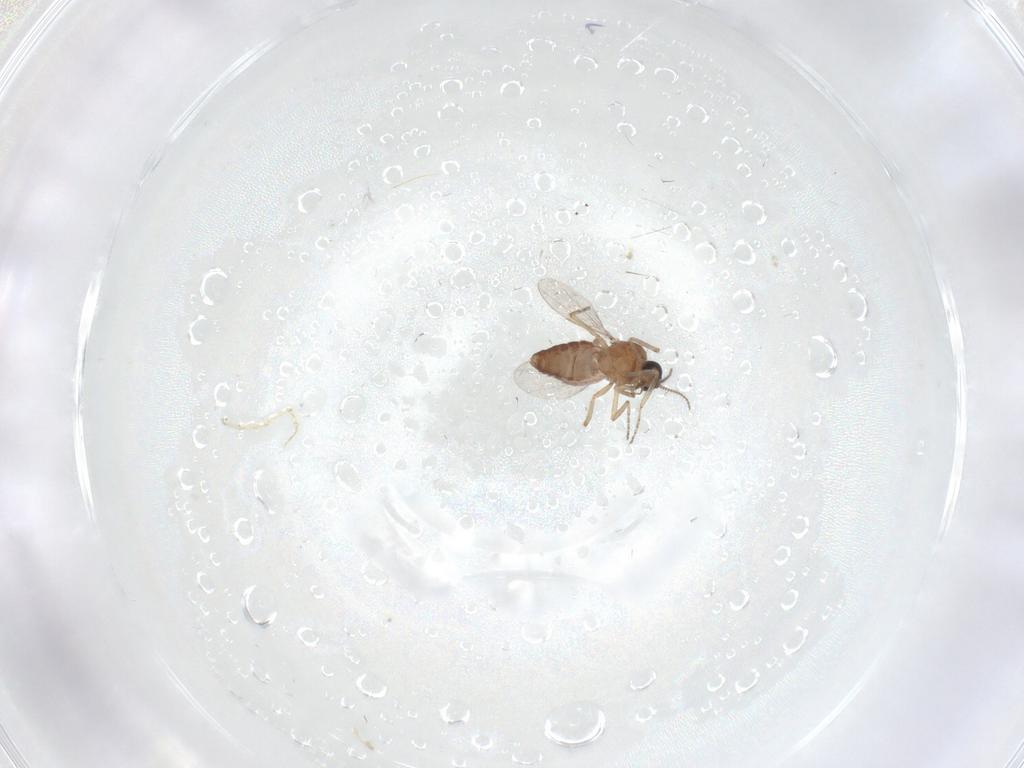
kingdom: Animalia
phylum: Arthropoda
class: Insecta
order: Diptera
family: Ceratopogonidae
